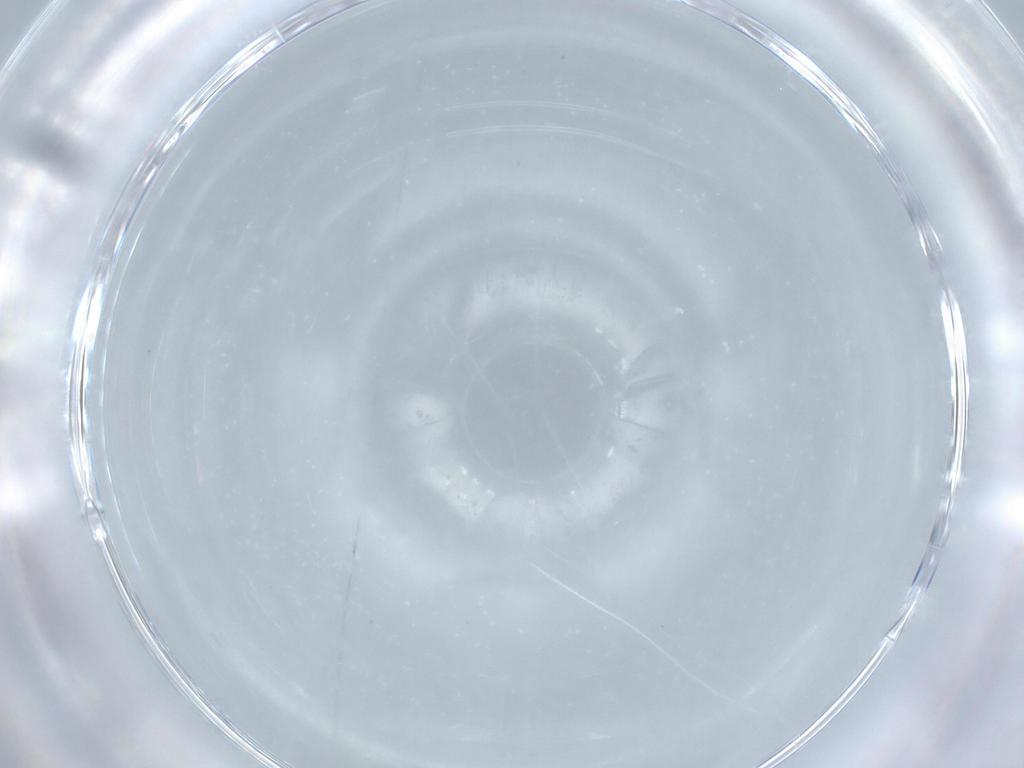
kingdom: Animalia
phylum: Arthropoda
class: Insecta
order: Hymenoptera
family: Trichogrammatidae
